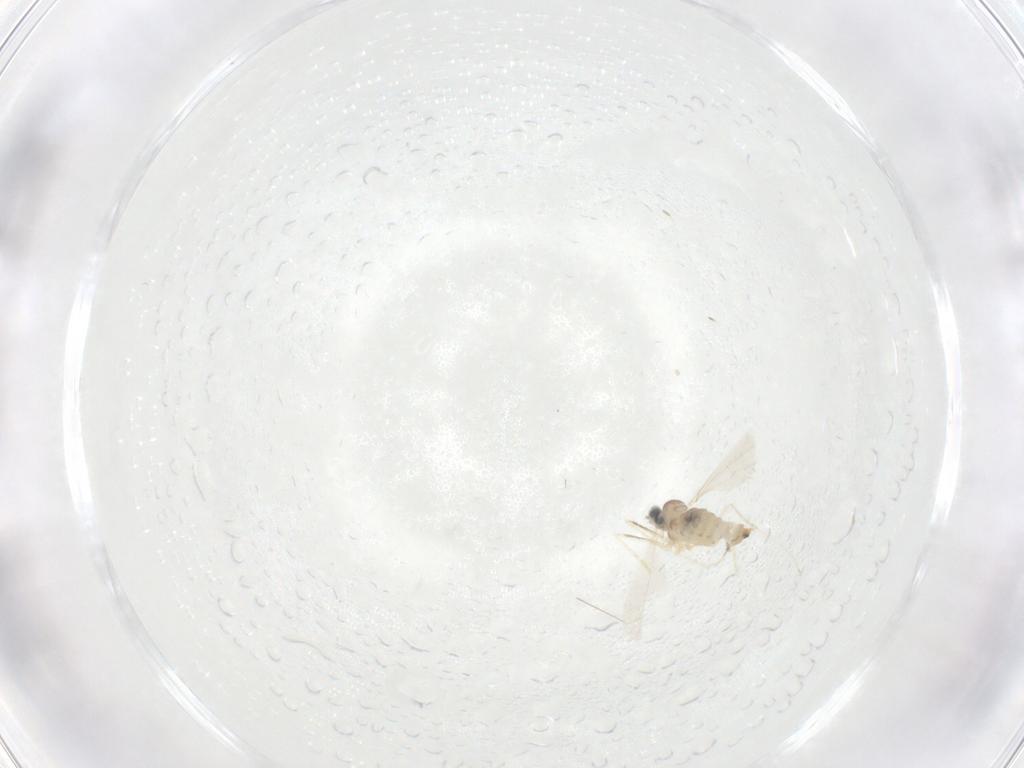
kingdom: Animalia
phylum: Arthropoda
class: Insecta
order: Diptera
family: Cecidomyiidae
